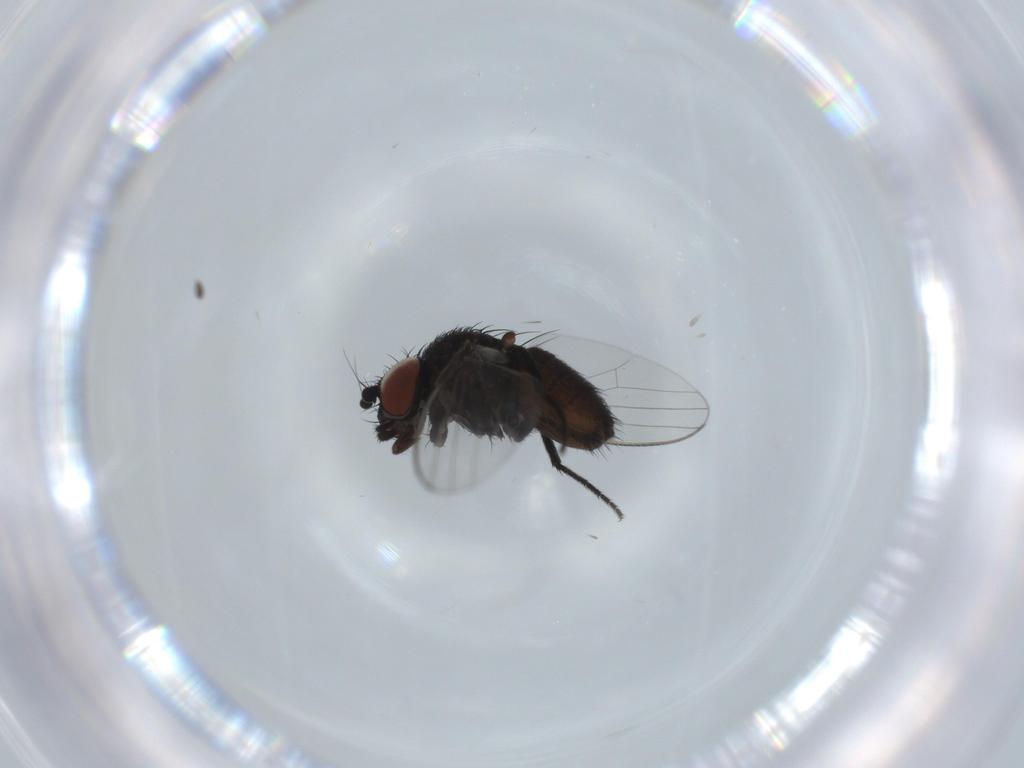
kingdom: Animalia
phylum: Arthropoda
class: Insecta
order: Diptera
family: Milichiidae
